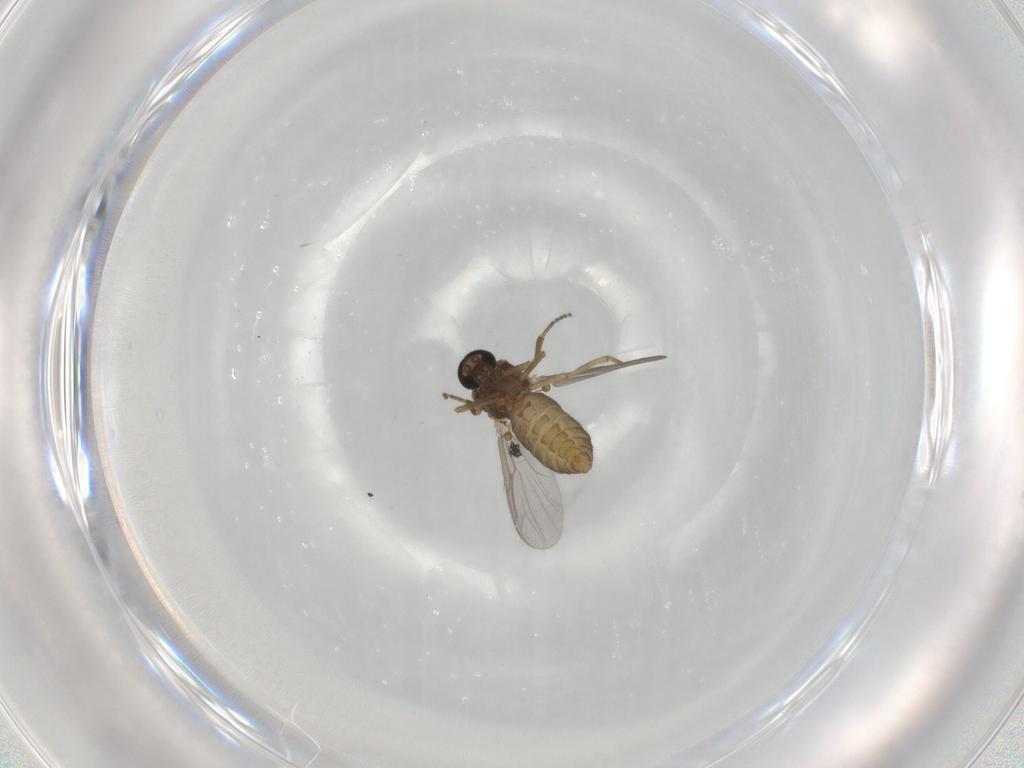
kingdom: Animalia
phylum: Arthropoda
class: Insecta
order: Diptera
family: Ceratopogonidae
